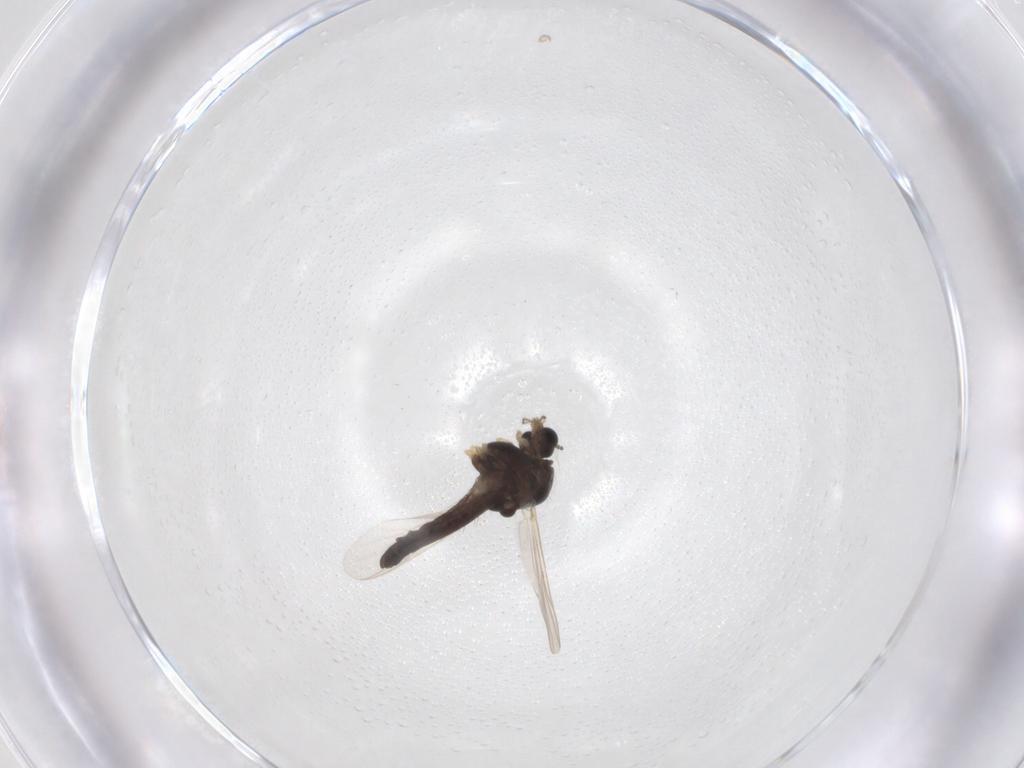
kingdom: Animalia
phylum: Arthropoda
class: Insecta
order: Diptera
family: Chironomidae
